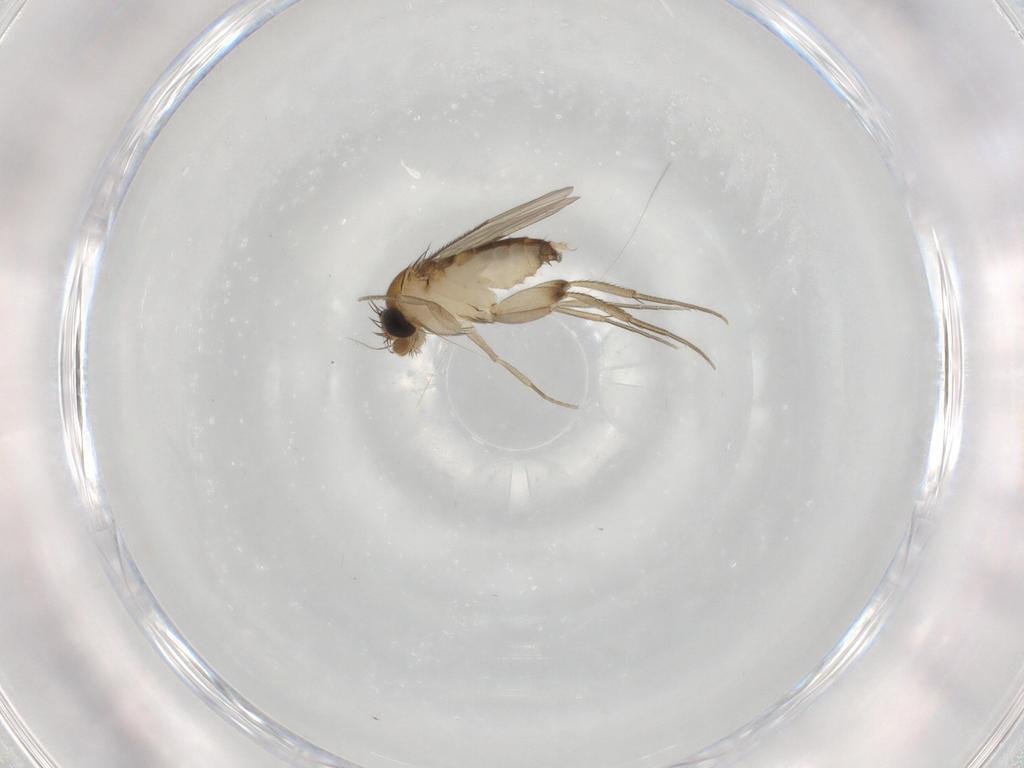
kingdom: Animalia
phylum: Arthropoda
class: Insecta
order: Diptera
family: Phoridae
